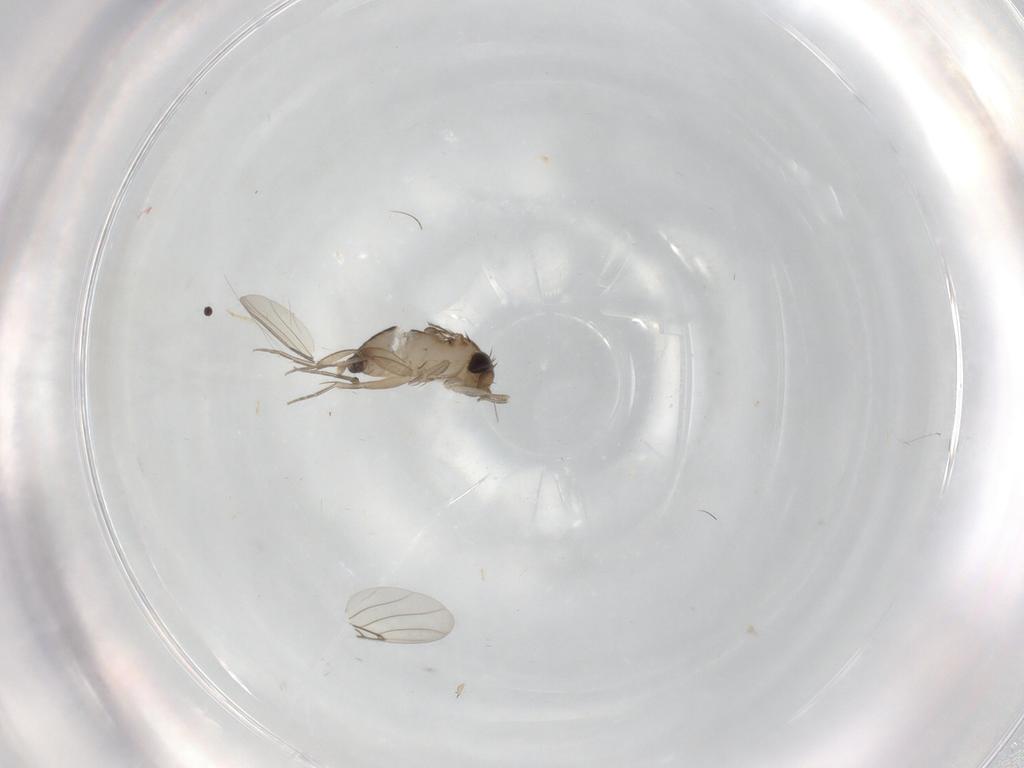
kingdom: Animalia
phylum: Arthropoda
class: Insecta
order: Diptera
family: Phoridae
